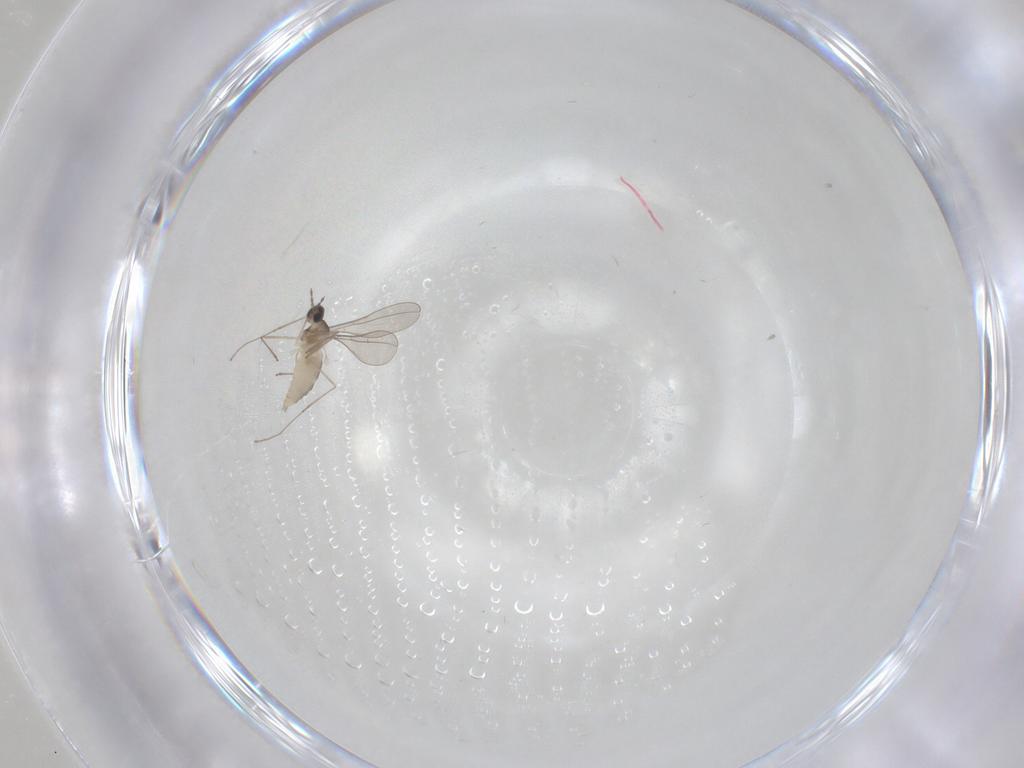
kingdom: Animalia
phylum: Arthropoda
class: Insecta
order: Diptera
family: Cecidomyiidae
